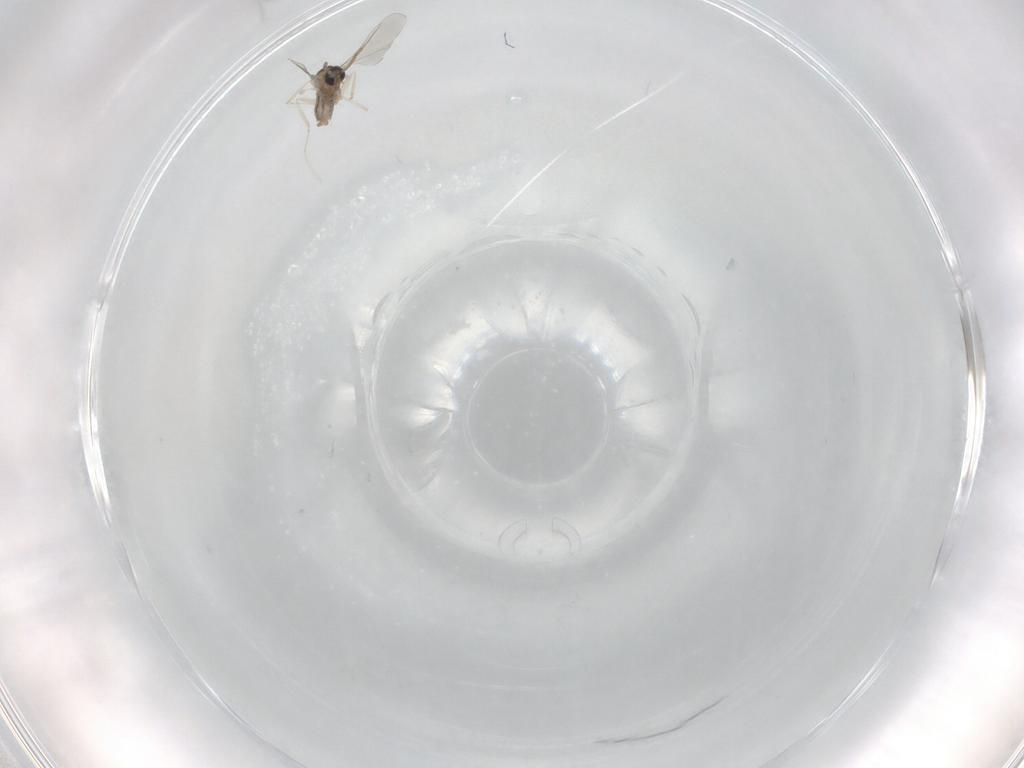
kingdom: Animalia
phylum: Arthropoda
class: Insecta
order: Diptera
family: Cecidomyiidae
